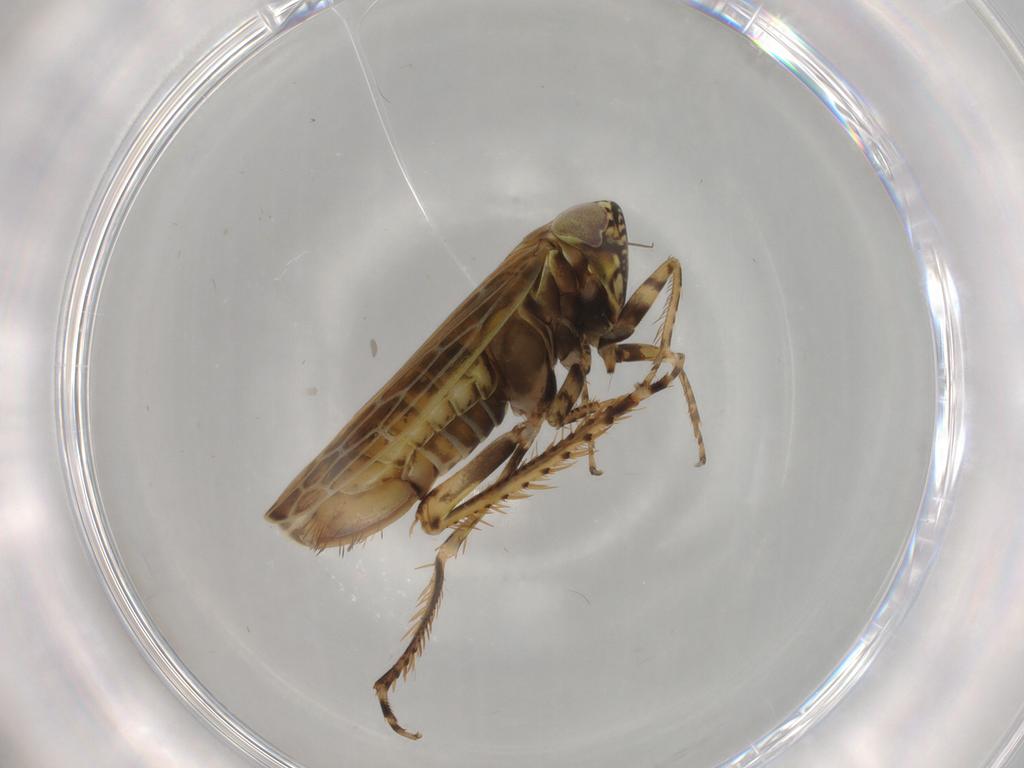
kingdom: Animalia
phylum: Arthropoda
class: Insecta
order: Hemiptera
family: Cicadellidae
